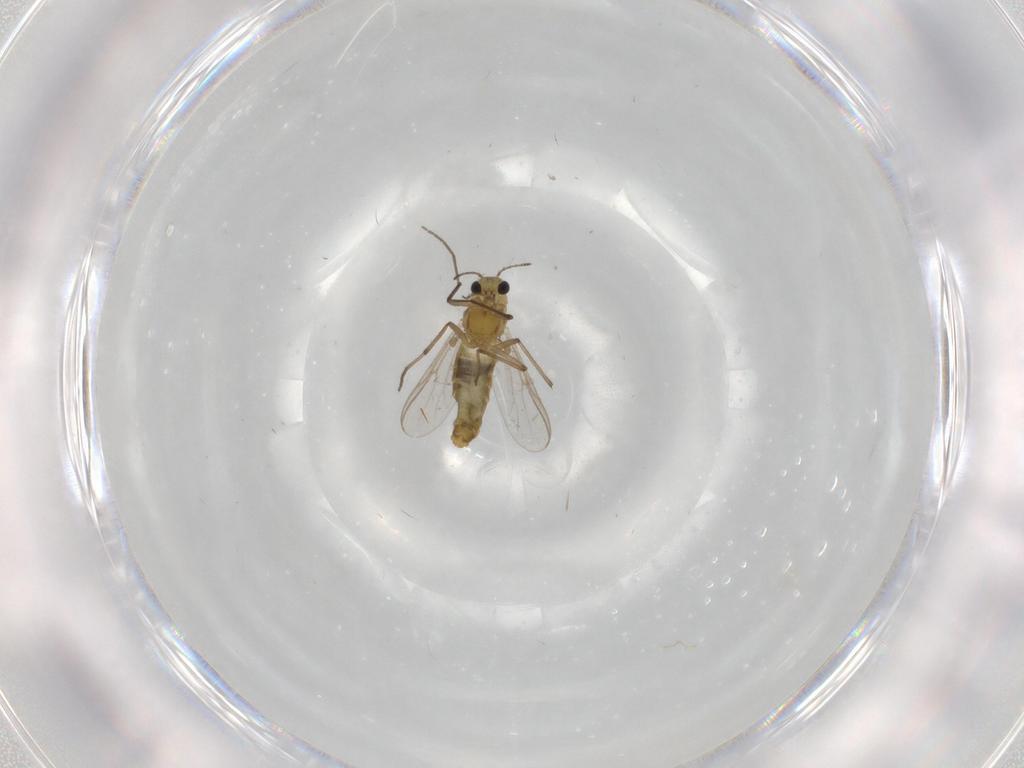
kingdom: Animalia
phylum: Arthropoda
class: Insecta
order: Diptera
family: Chironomidae
